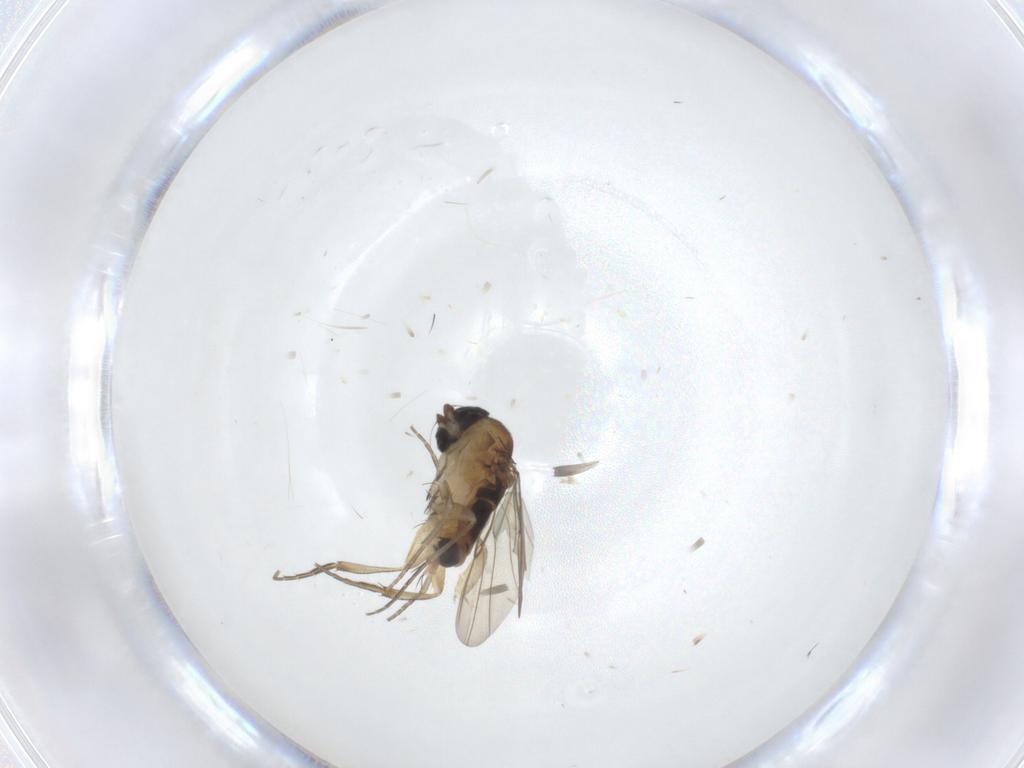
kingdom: Animalia
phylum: Arthropoda
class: Insecta
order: Diptera
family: Phoridae
